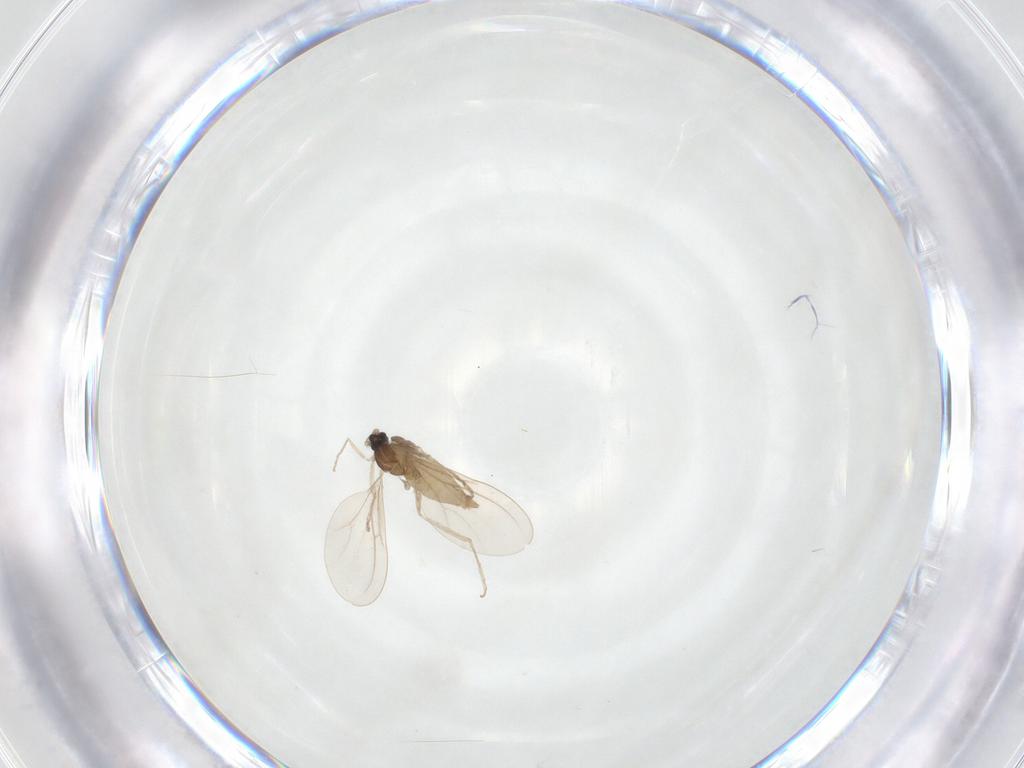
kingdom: Animalia
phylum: Arthropoda
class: Insecta
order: Diptera
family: Cecidomyiidae
